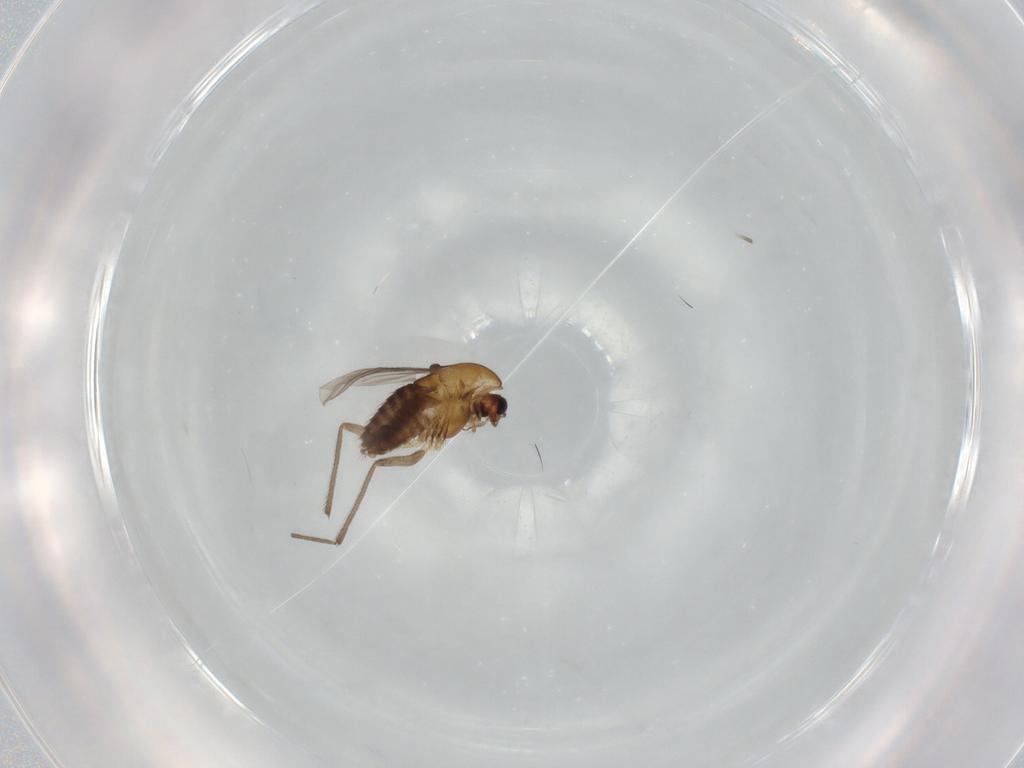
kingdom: Animalia
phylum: Arthropoda
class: Insecta
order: Diptera
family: Chironomidae
